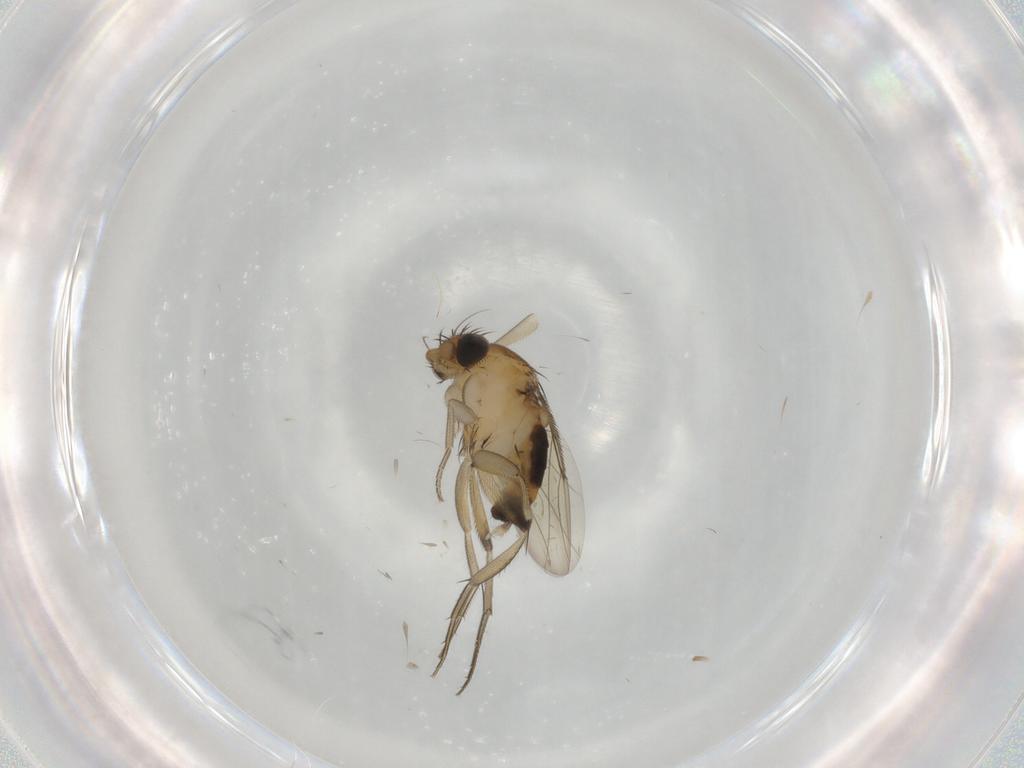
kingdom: Animalia
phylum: Arthropoda
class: Insecta
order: Diptera
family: Phoridae
